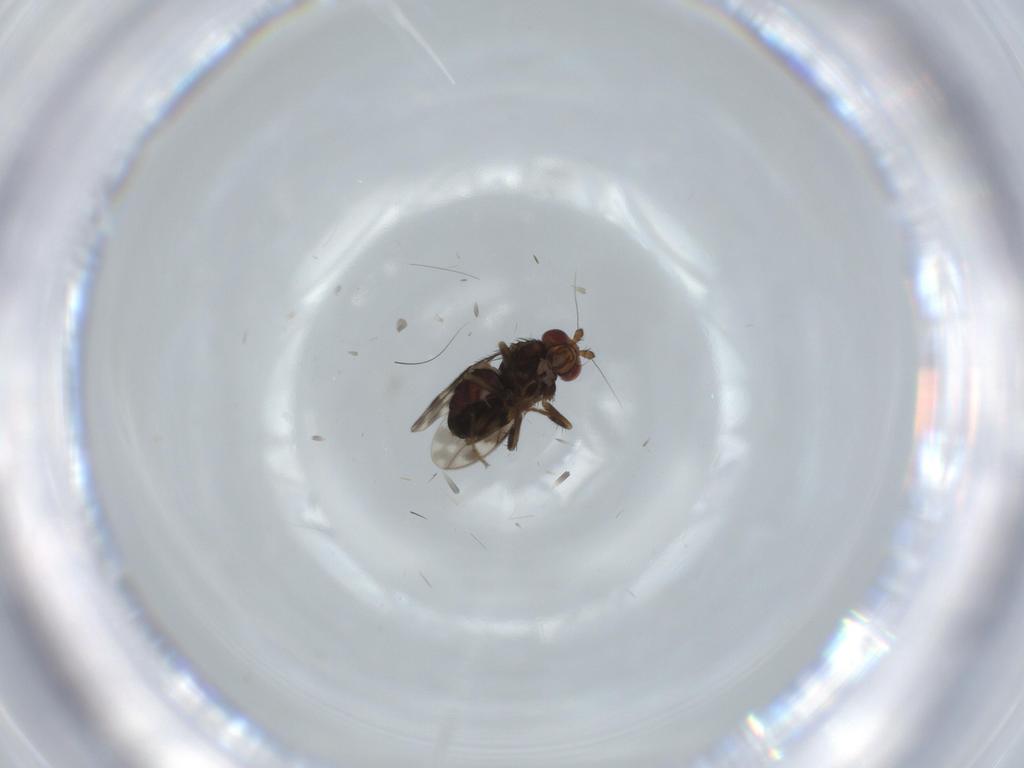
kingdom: Animalia
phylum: Arthropoda
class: Insecta
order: Diptera
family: Sphaeroceridae
